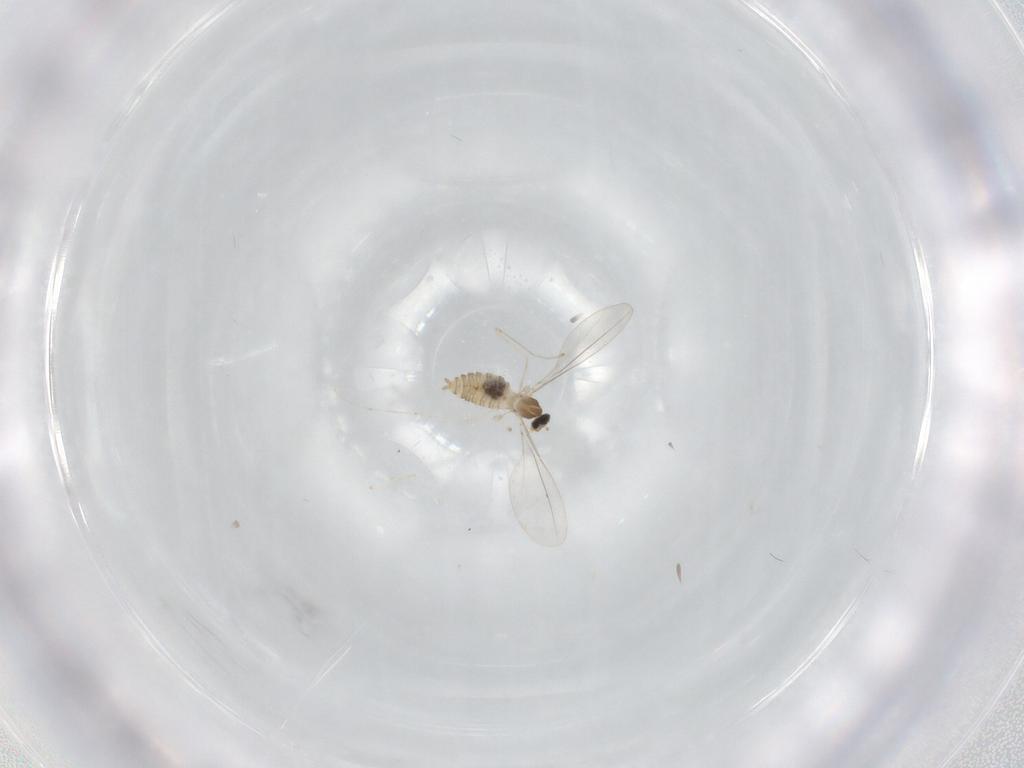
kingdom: Animalia
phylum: Arthropoda
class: Insecta
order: Diptera
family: Cecidomyiidae
